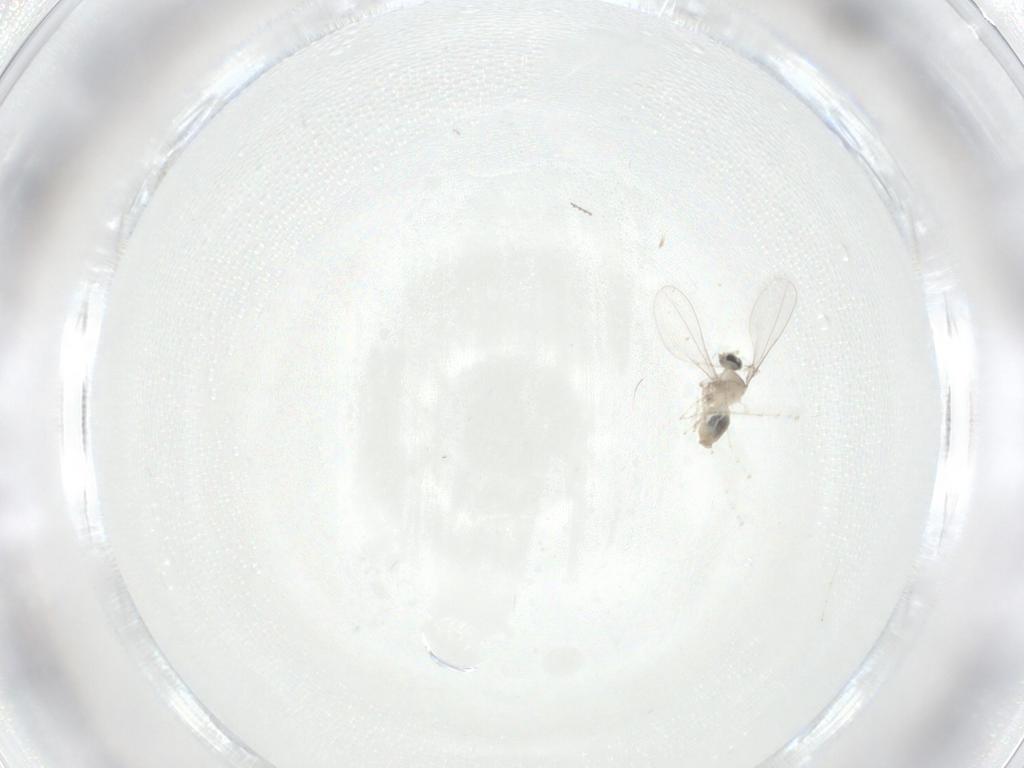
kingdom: Animalia
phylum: Arthropoda
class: Insecta
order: Diptera
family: Cecidomyiidae
